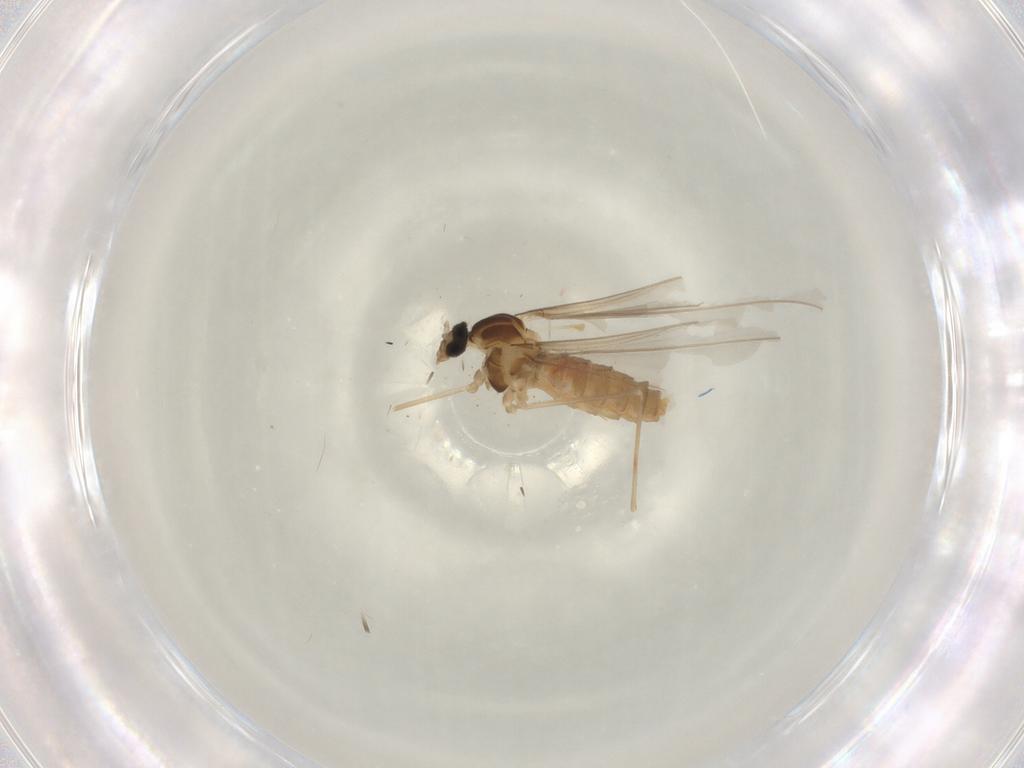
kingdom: Animalia
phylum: Arthropoda
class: Insecta
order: Diptera
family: Cecidomyiidae
